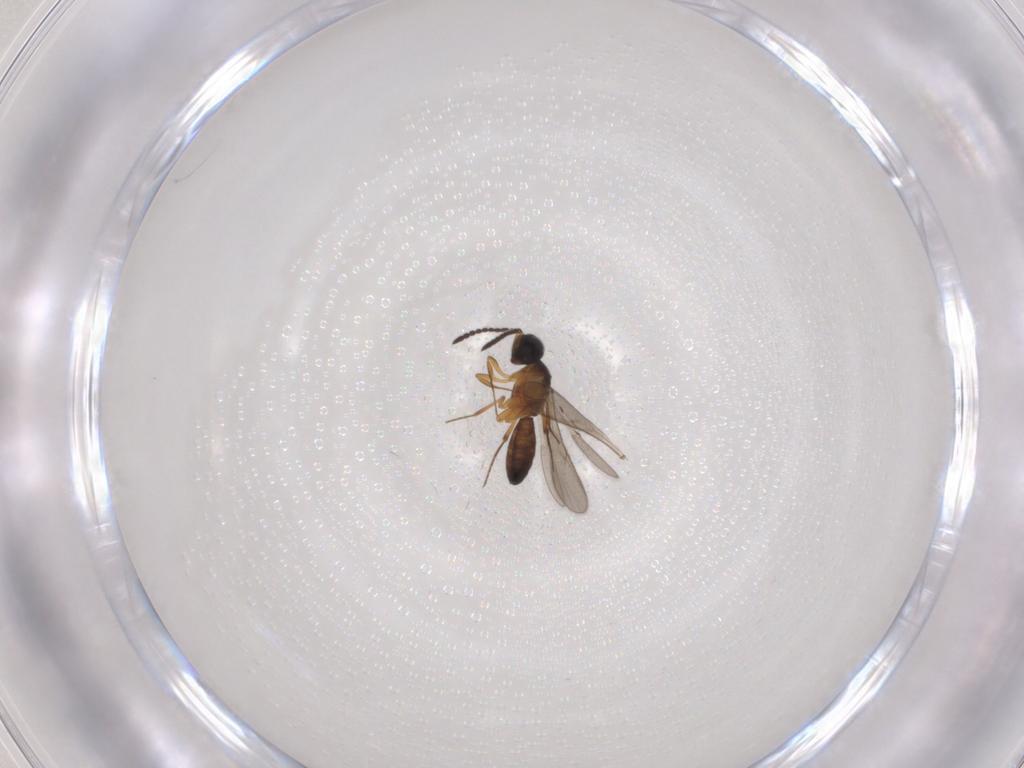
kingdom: Animalia
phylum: Arthropoda
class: Insecta
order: Hymenoptera
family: Scelionidae
